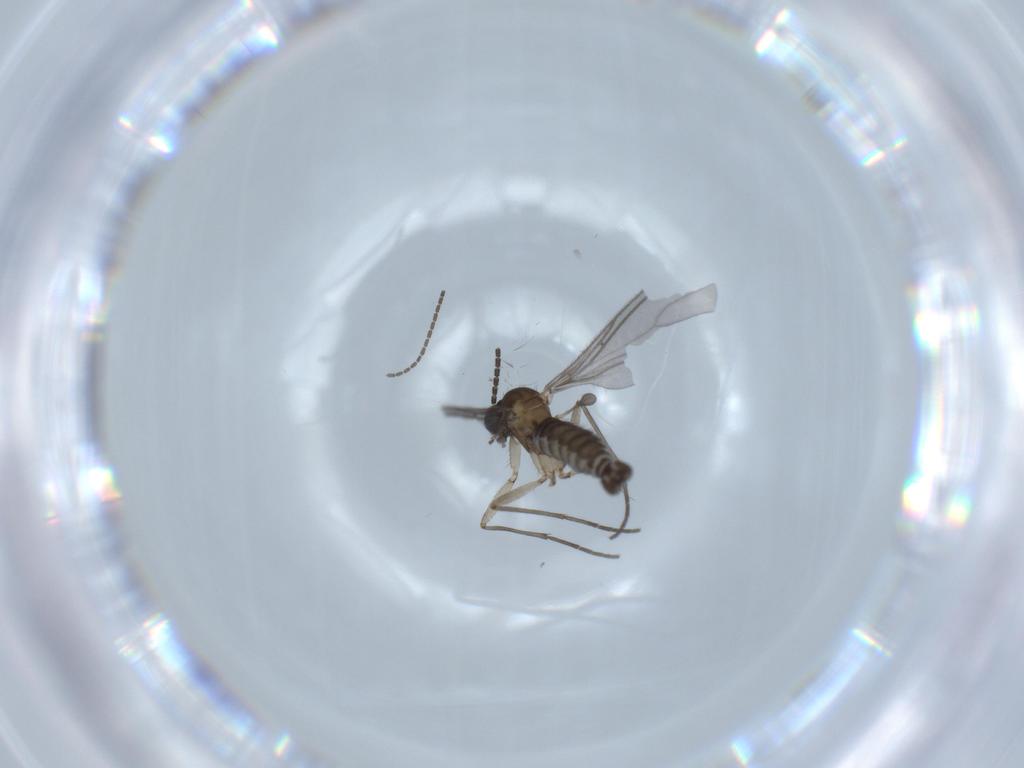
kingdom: Animalia
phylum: Arthropoda
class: Insecta
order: Diptera
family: Sciaridae
